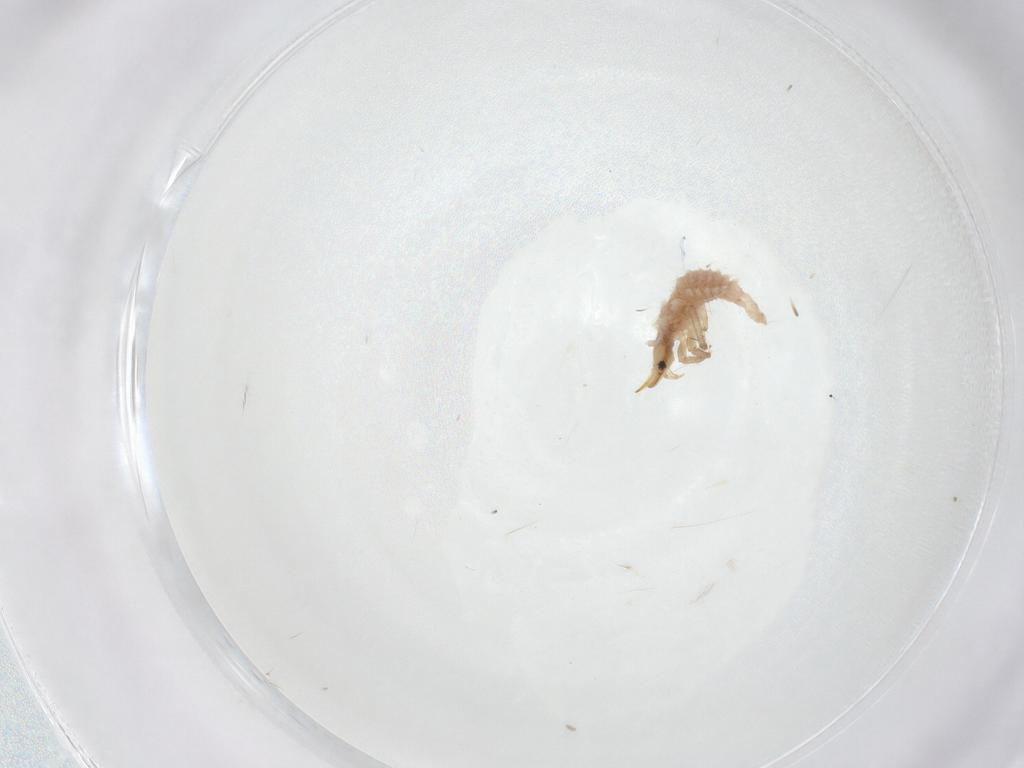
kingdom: Animalia
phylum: Arthropoda
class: Insecta
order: Neuroptera
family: Chrysopidae
